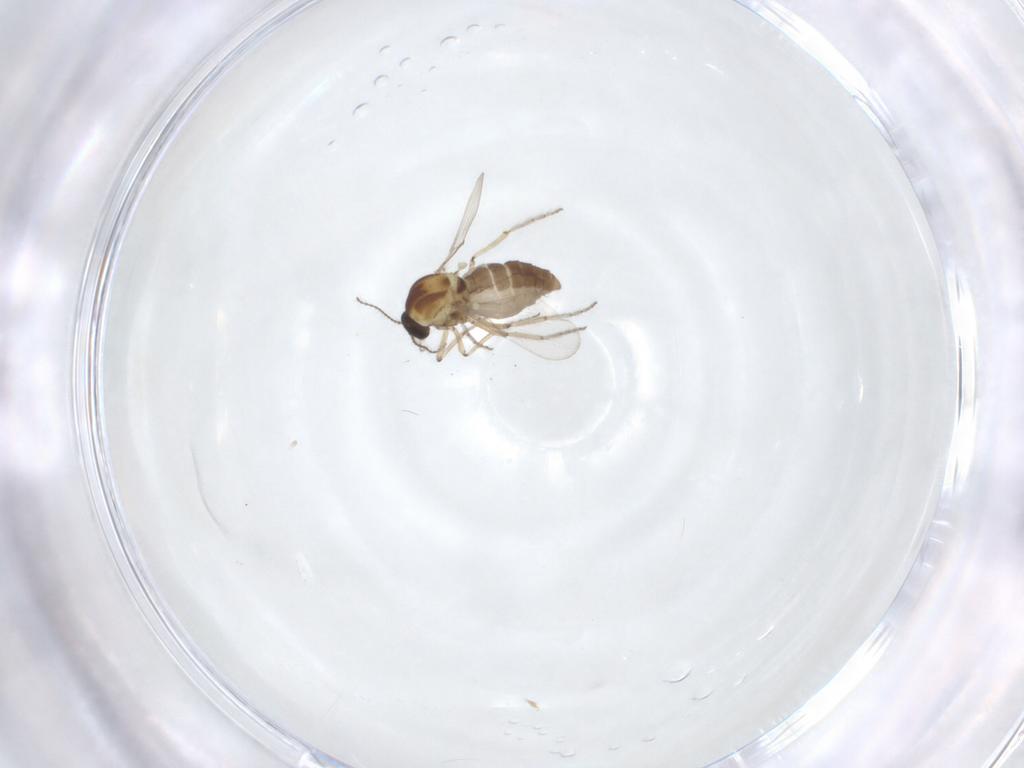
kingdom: Animalia
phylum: Arthropoda
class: Insecta
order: Diptera
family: Ceratopogonidae
